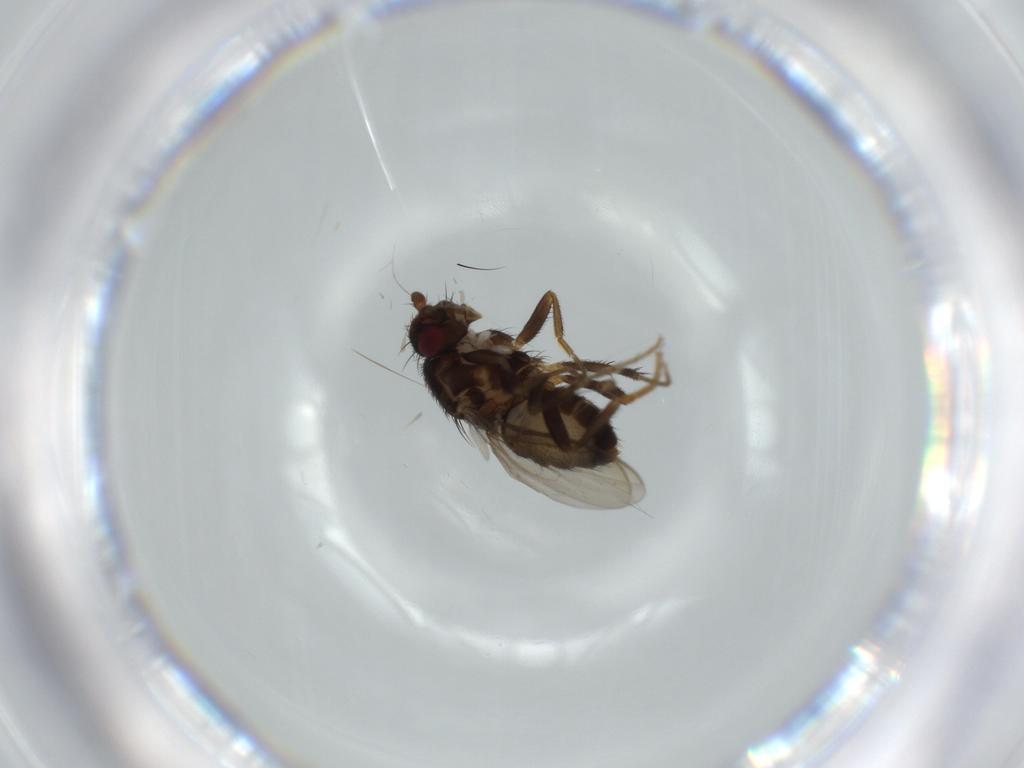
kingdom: Animalia
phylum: Arthropoda
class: Insecta
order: Diptera
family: Sphaeroceridae
